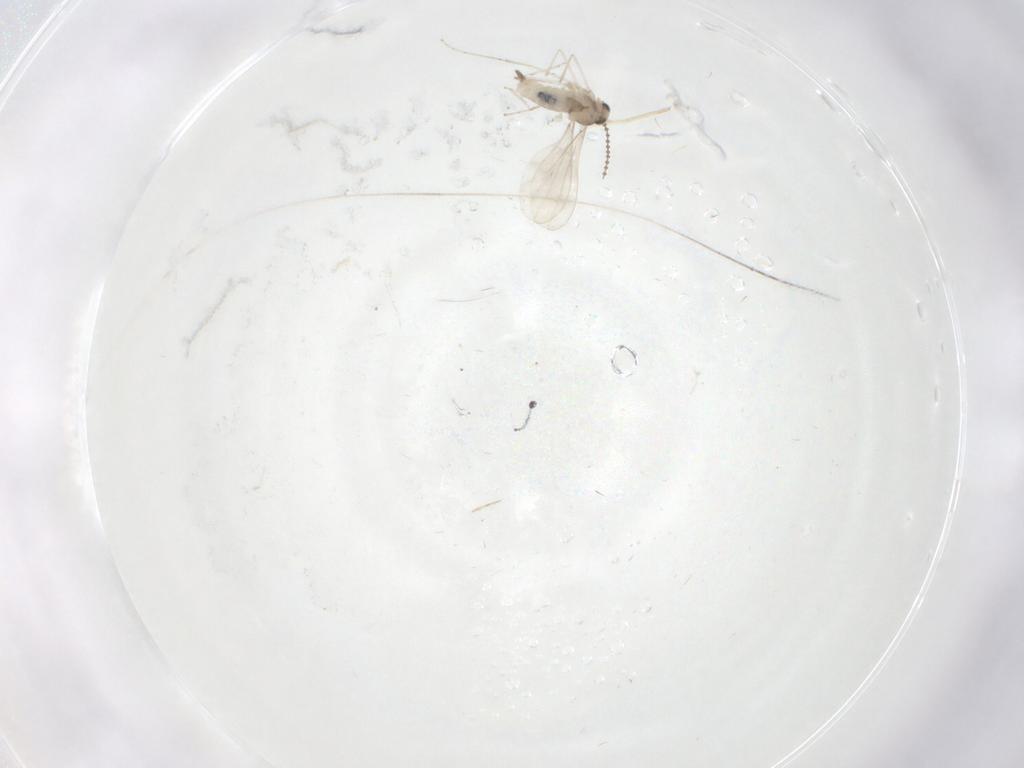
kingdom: Animalia
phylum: Arthropoda
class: Insecta
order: Diptera
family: Cecidomyiidae
